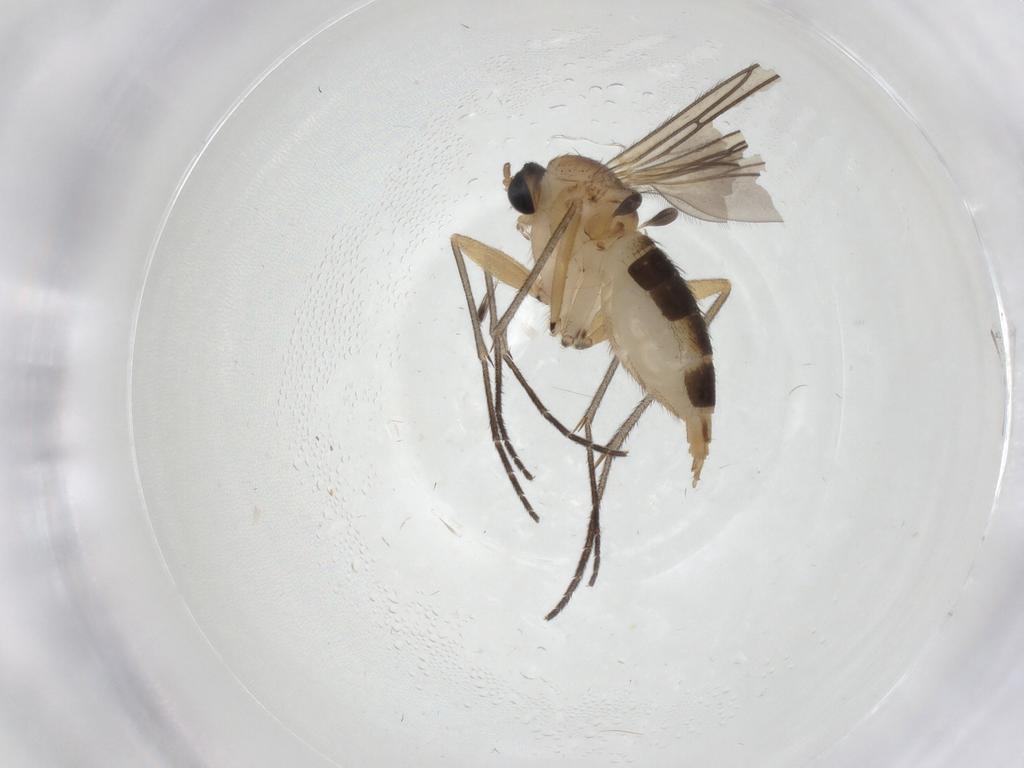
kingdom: Animalia
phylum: Arthropoda
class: Insecta
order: Diptera
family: Sciaridae
